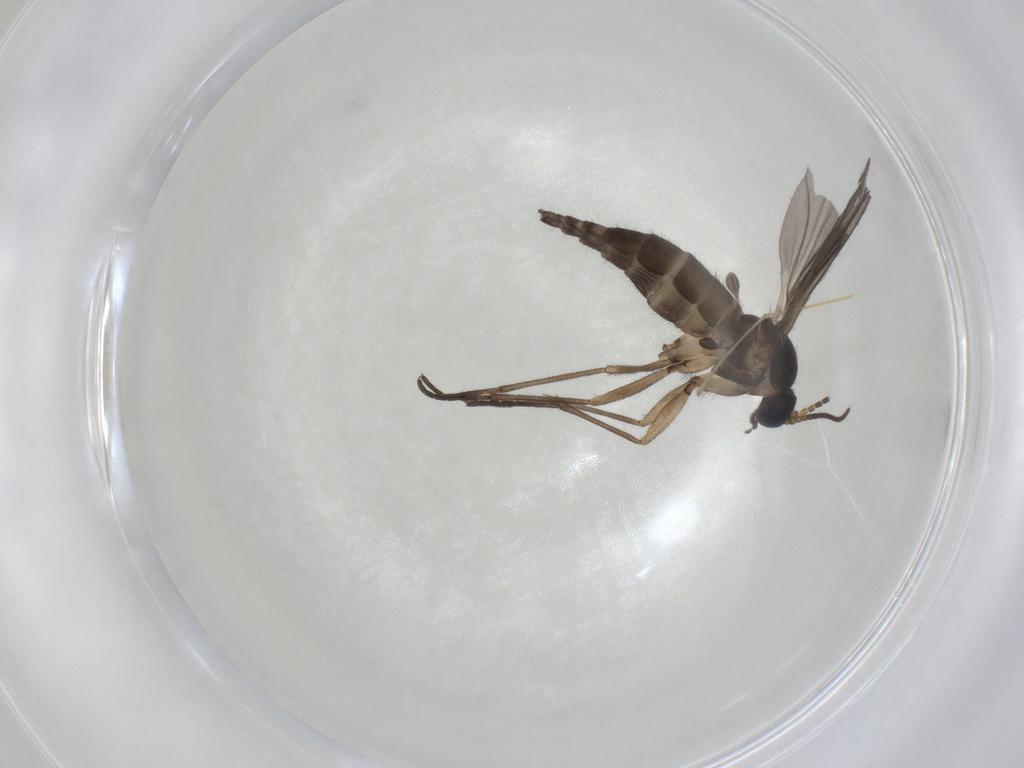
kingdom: Animalia
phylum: Arthropoda
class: Insecta
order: Diptera
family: Sciaridae
